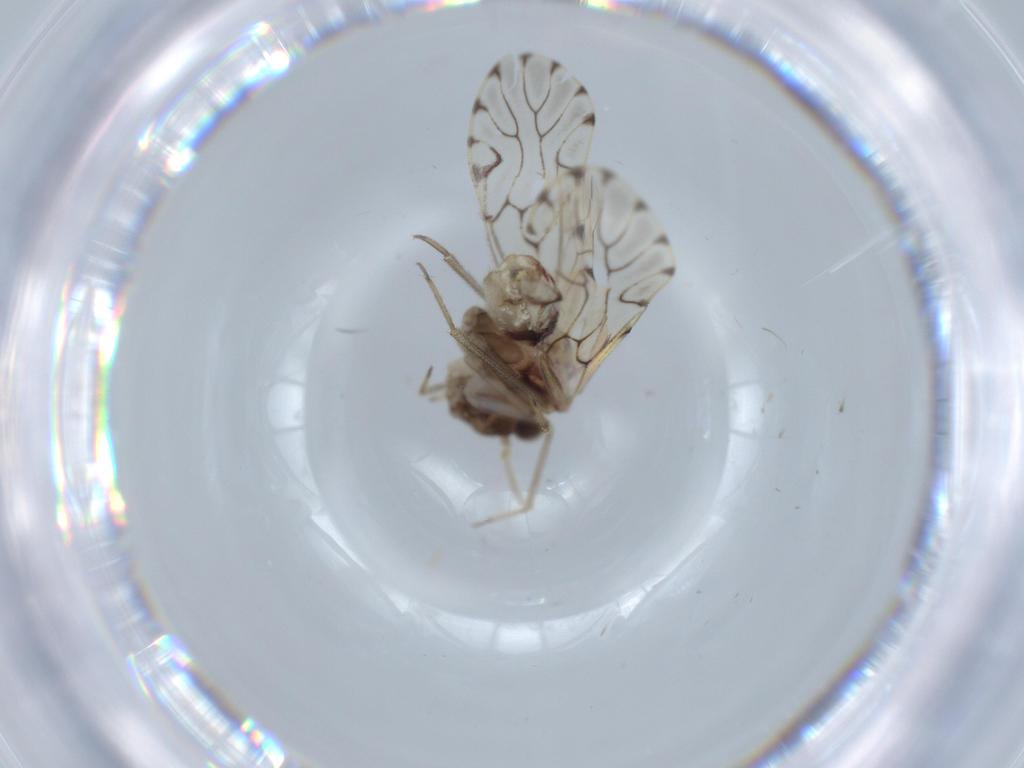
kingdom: Animalia
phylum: Arthropoda
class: Insecta
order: Psocodea
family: Lepidopsocidae
